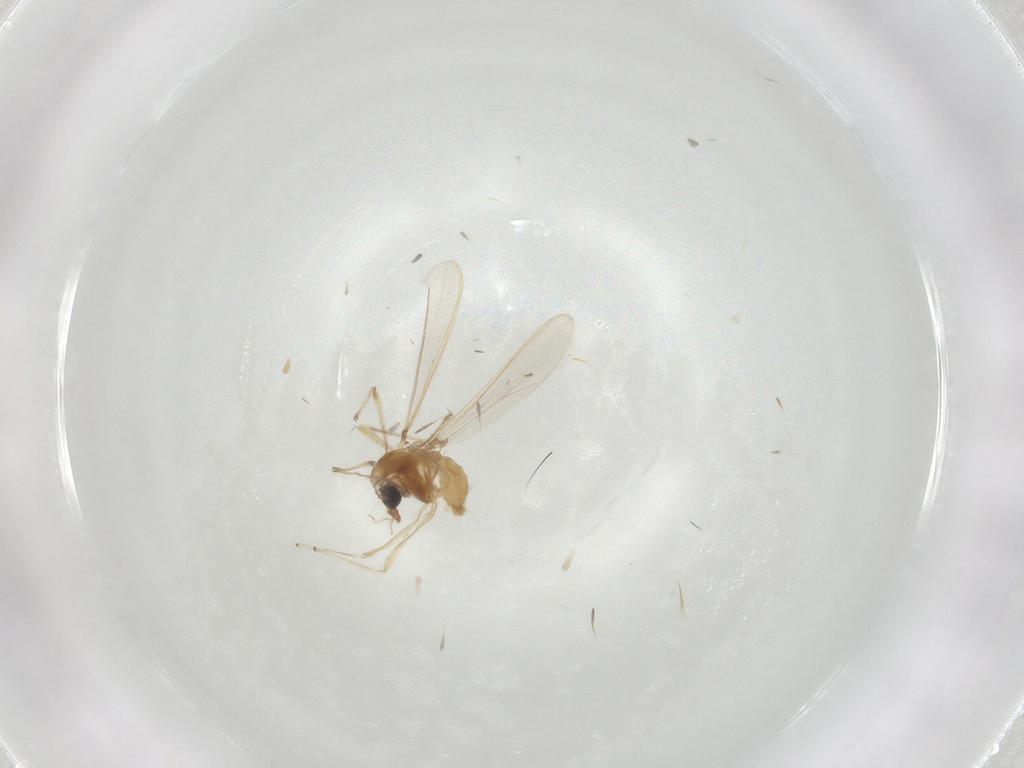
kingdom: Animalia
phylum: Arthropoda
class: Insecta
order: Diptera
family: Chironomidae
